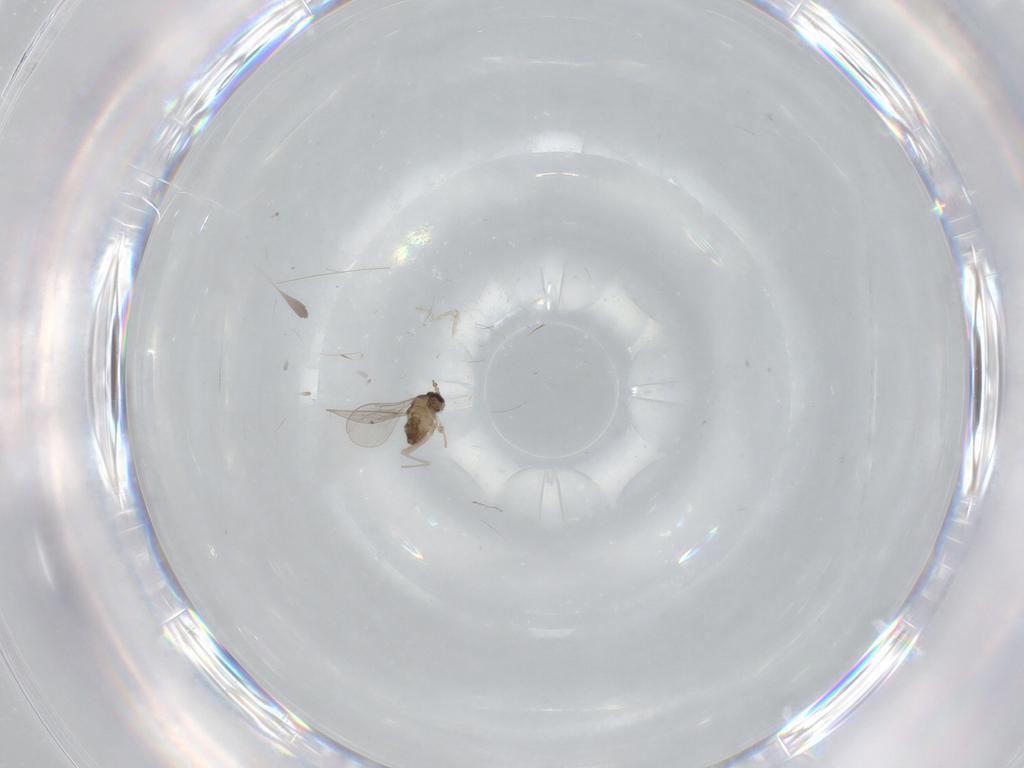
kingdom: Animalia
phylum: Arthropoda
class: Insecta
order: Diptera
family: Cecidomyiidae
